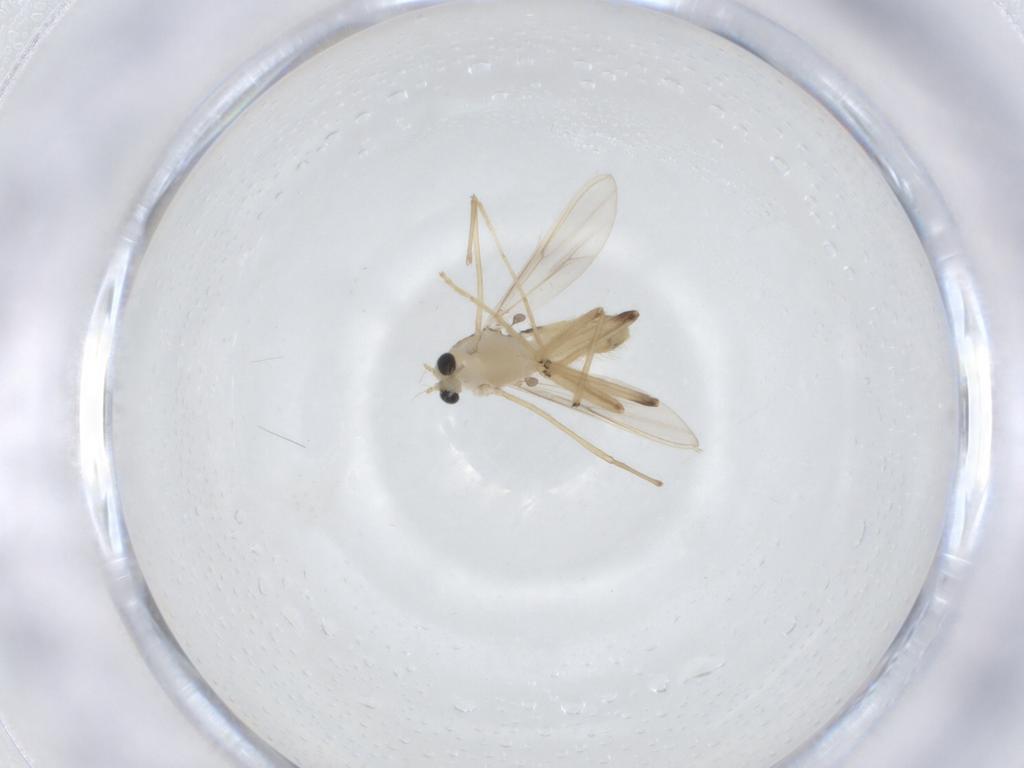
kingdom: Animalia
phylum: Arthropoda
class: Insecta
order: Diptera
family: Chironomidae
